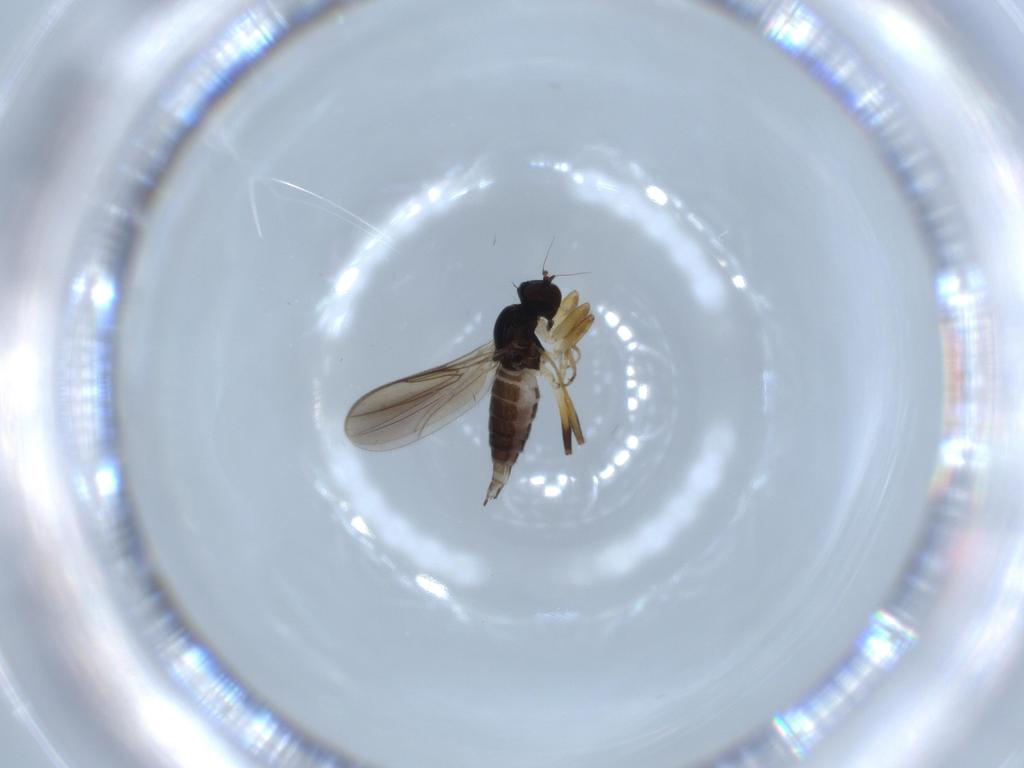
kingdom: Animalia
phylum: Arthropoda
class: Insecta
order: Diptera
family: Hybotidae
